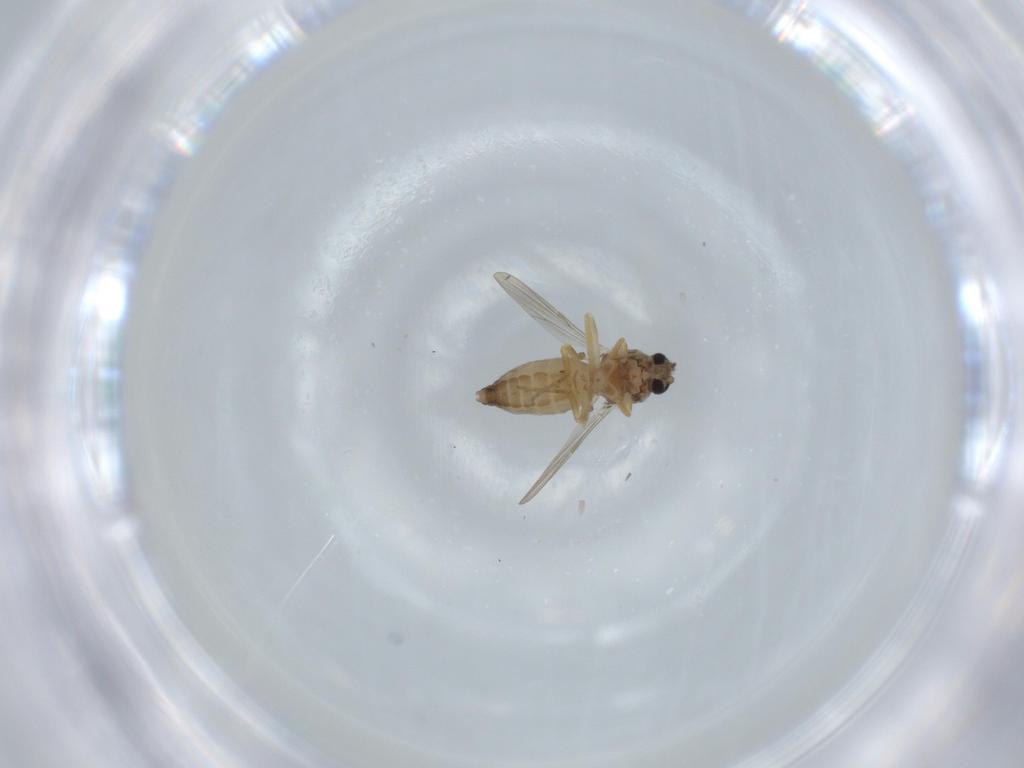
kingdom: Animalia
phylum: Arthropoda
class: Insecta
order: Diptera
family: Ceratopogonidae
